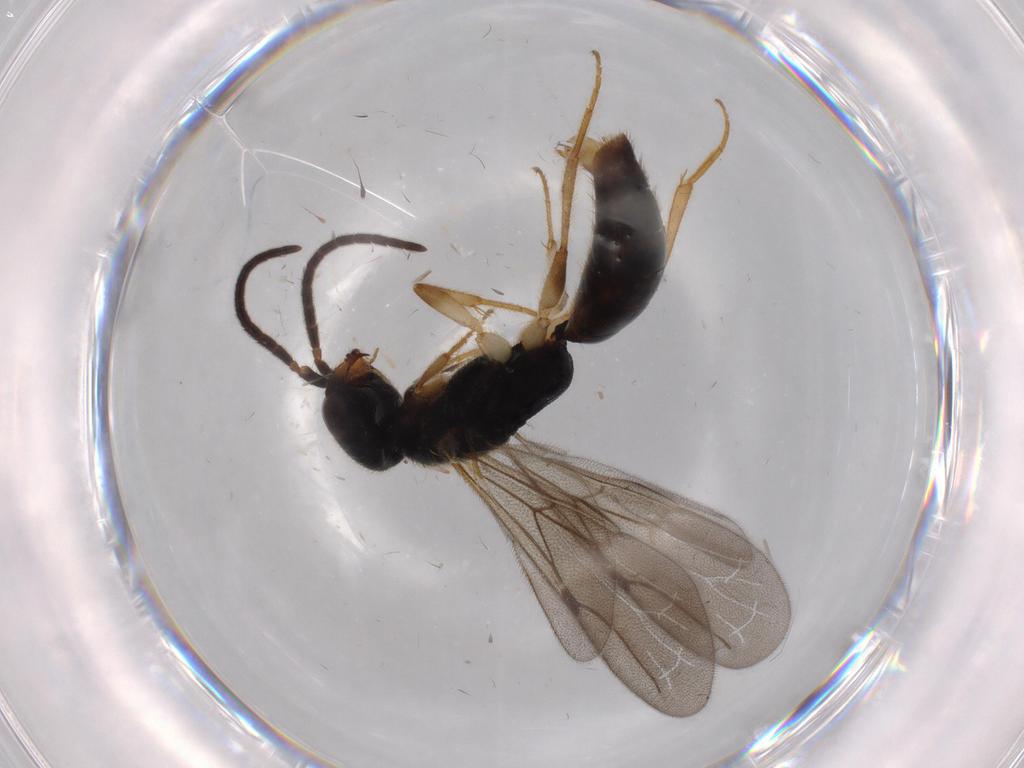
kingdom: Animalia
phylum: Arthropoda
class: Insecta
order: Hymenoptera
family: Bethylidae
